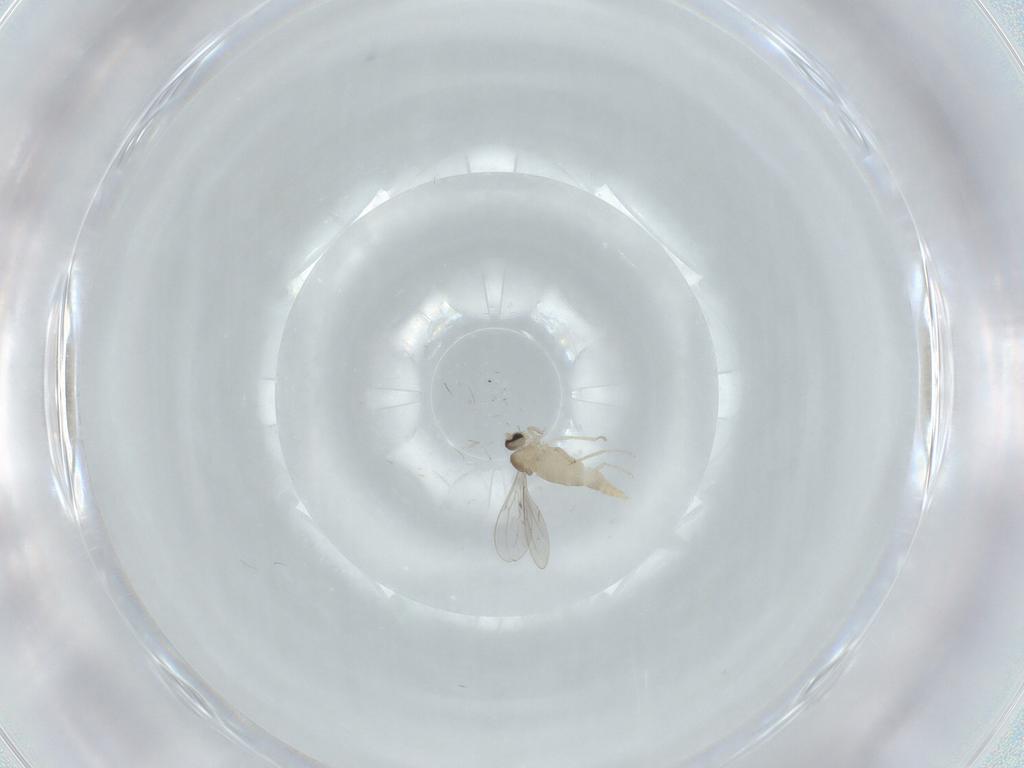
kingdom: Animalia
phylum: Arthropoda
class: Insecta
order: Diptera
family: Cecidomyiidae
